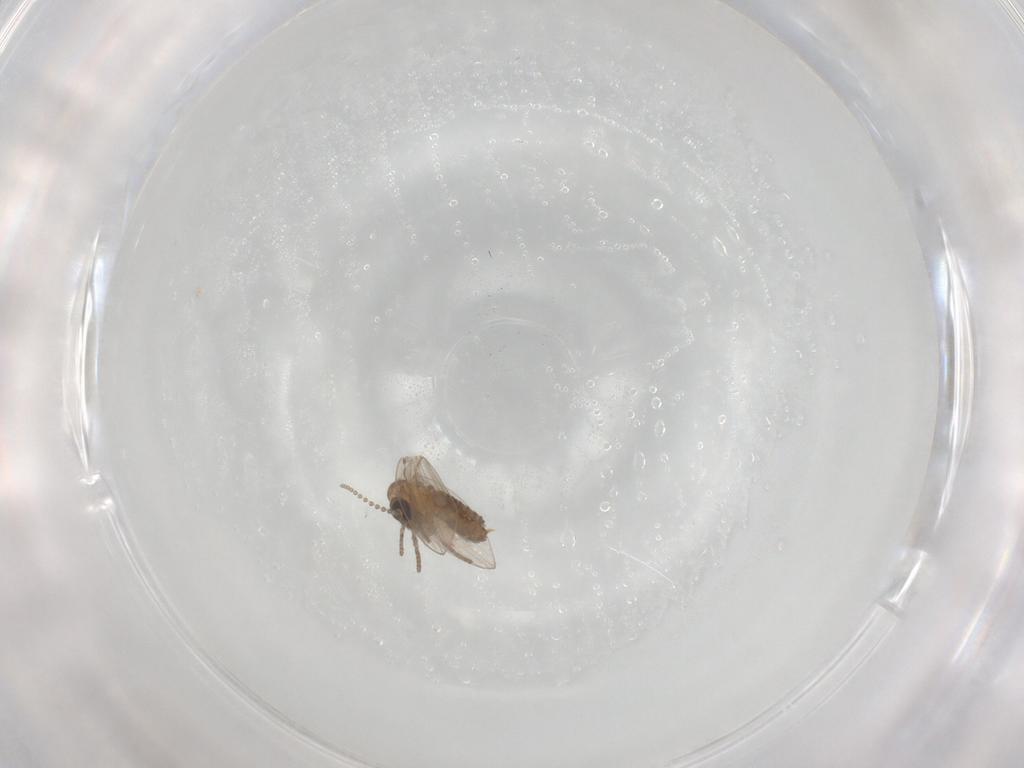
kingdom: Animalia
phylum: Arthropoda
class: Insecta
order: Diptera
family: Psychodidae
